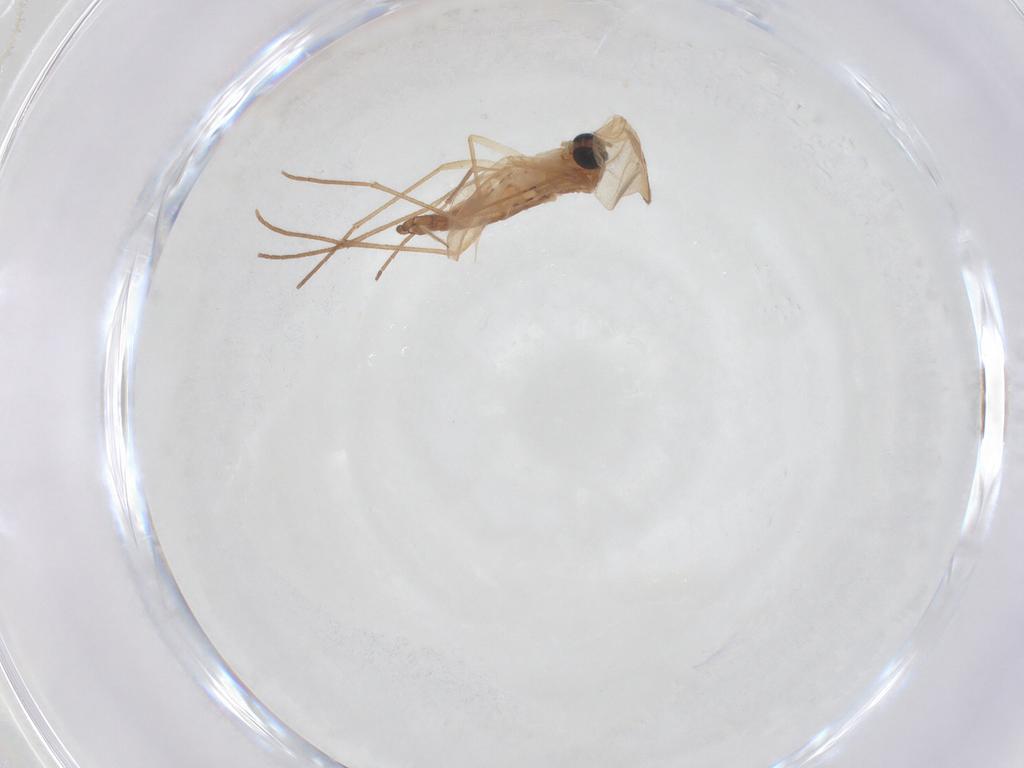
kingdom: Animalia
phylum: Arthropoda
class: Insecta
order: Diptera
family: Sciaridae
